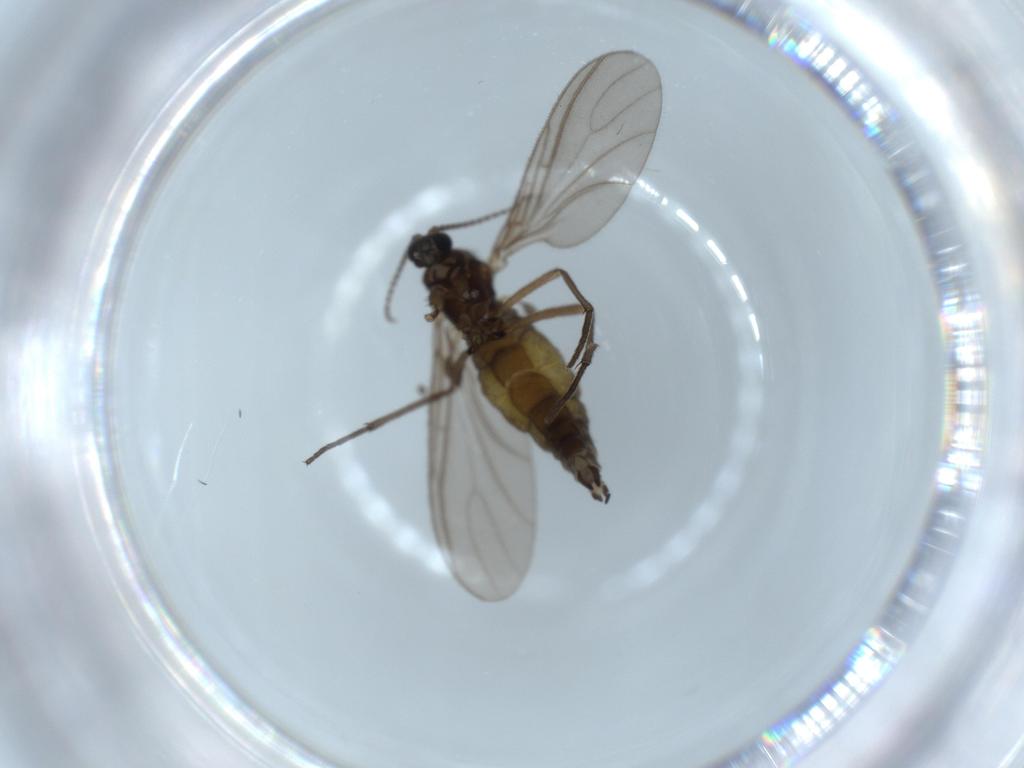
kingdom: Animalia
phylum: Arthropoda
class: Insecta
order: Diptera
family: Sciaridae
